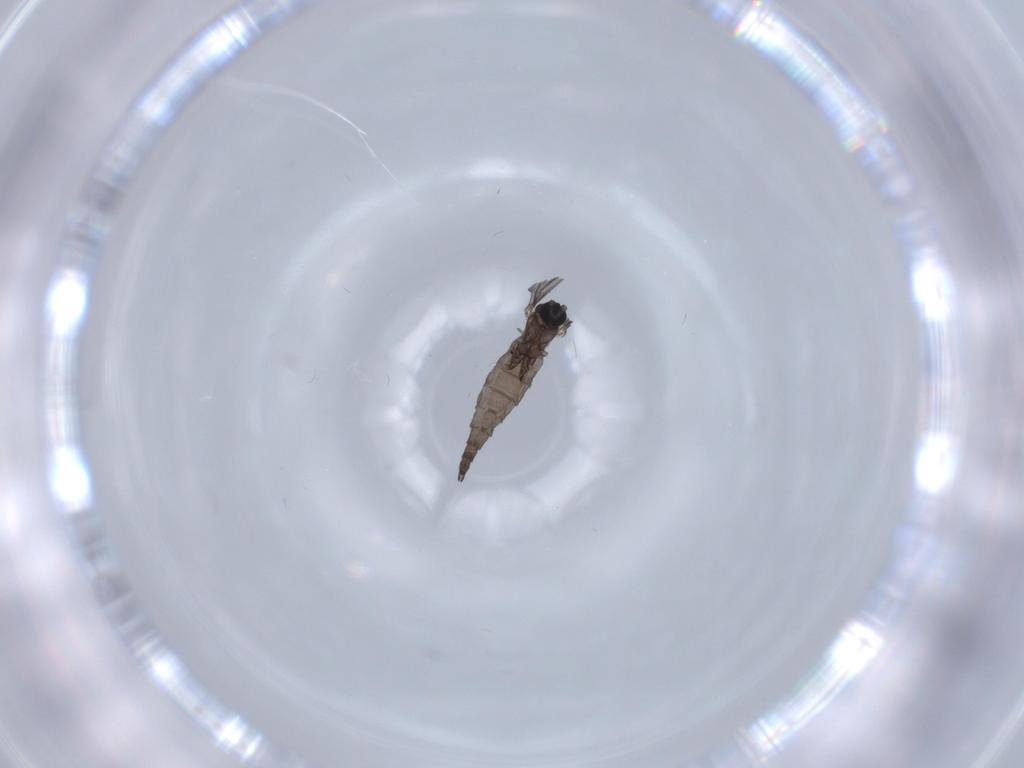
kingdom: Animalia
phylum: Arthropoda
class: Insecta
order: Diptera
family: Sciaridae
